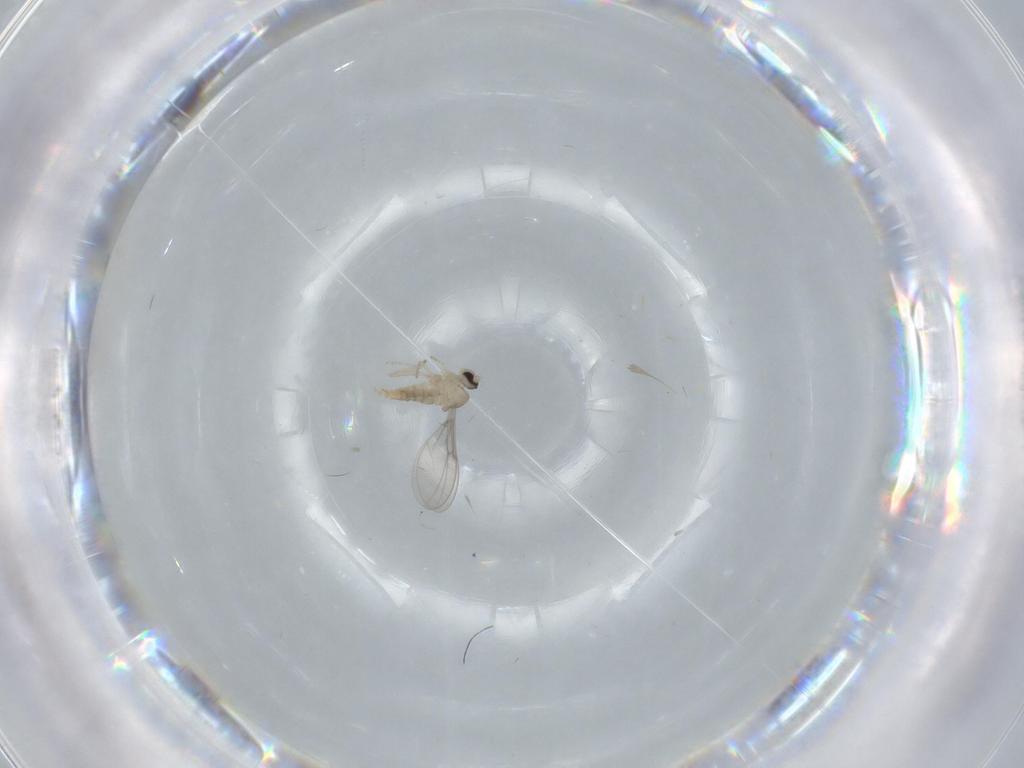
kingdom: Animalia
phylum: Arthropoda
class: Insecta
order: Diptera
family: Cecidomyiidae
